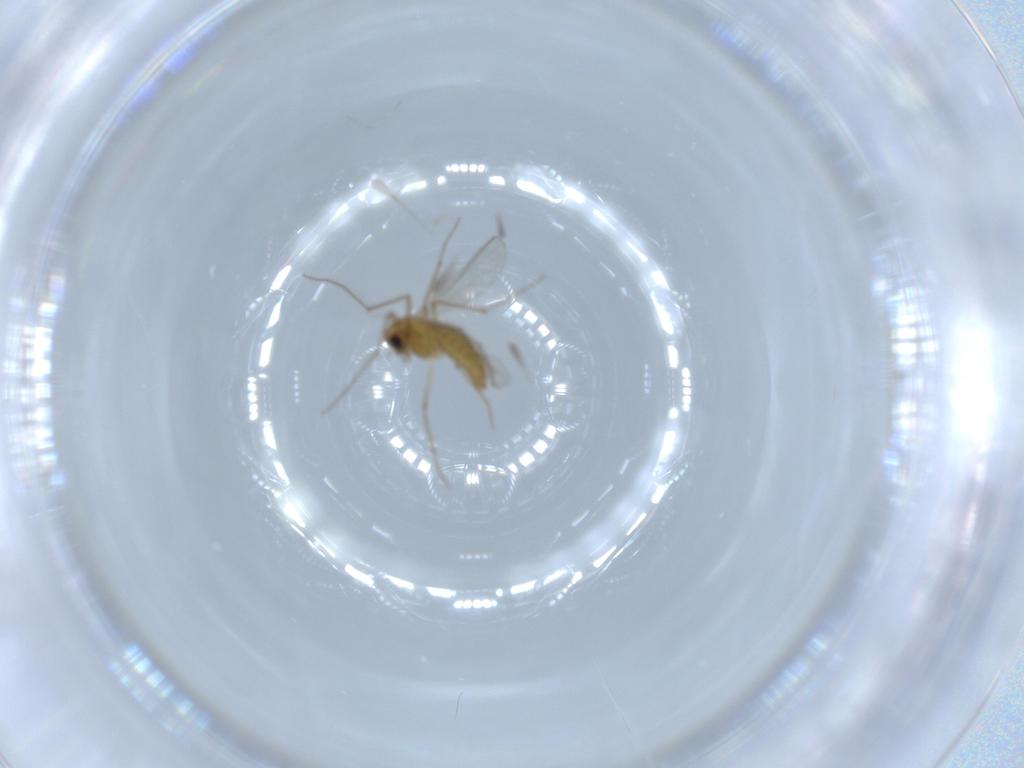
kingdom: Animalia
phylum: Arthropoda
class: Insecta
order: Diptera
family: Chironomidae
